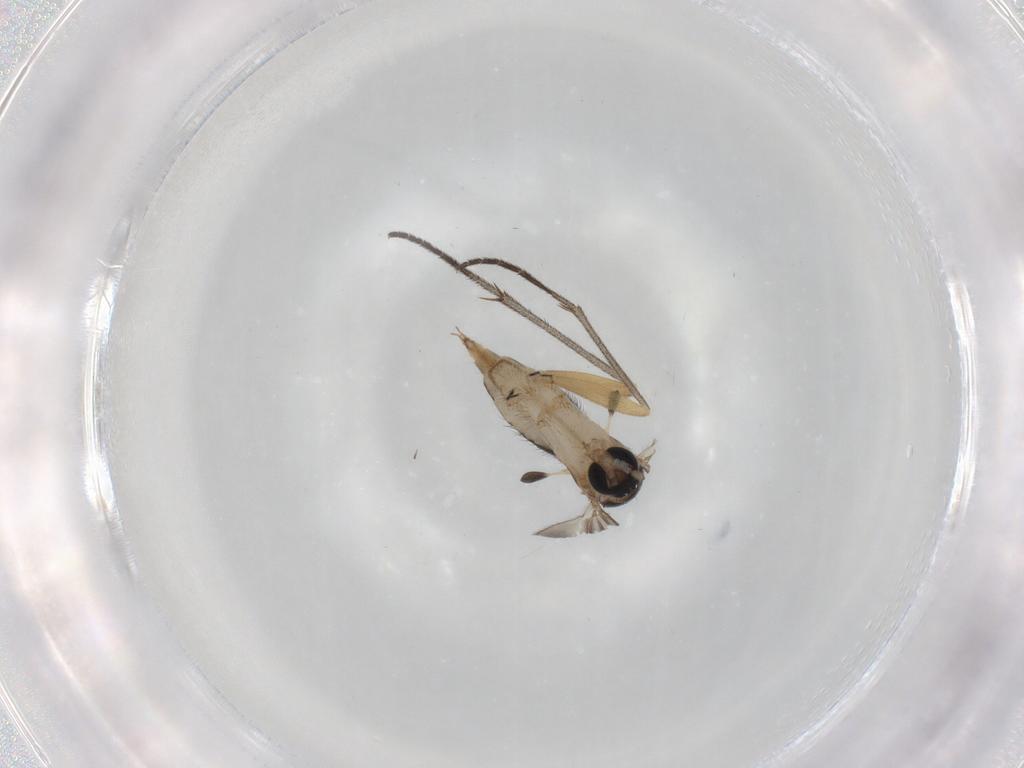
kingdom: Animalia
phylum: Arthropoda
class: Insecta
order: Diptera
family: Sciaridae
